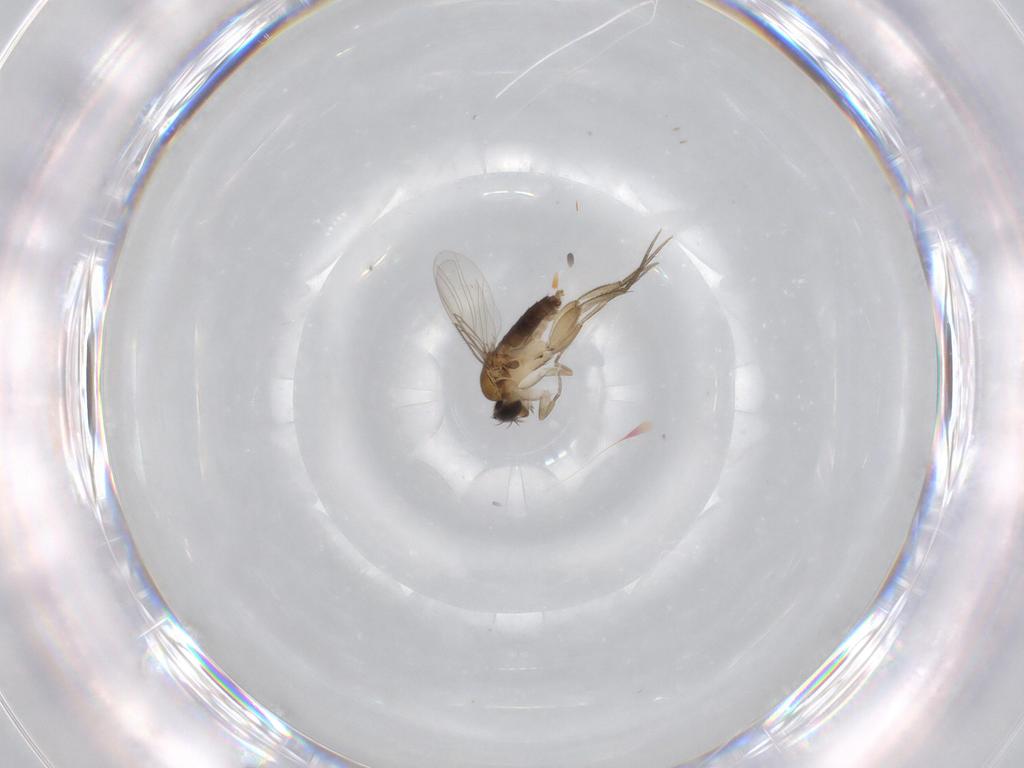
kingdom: Animalia
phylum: Arthropoda
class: Insecta
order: Diptera
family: Phoridae
